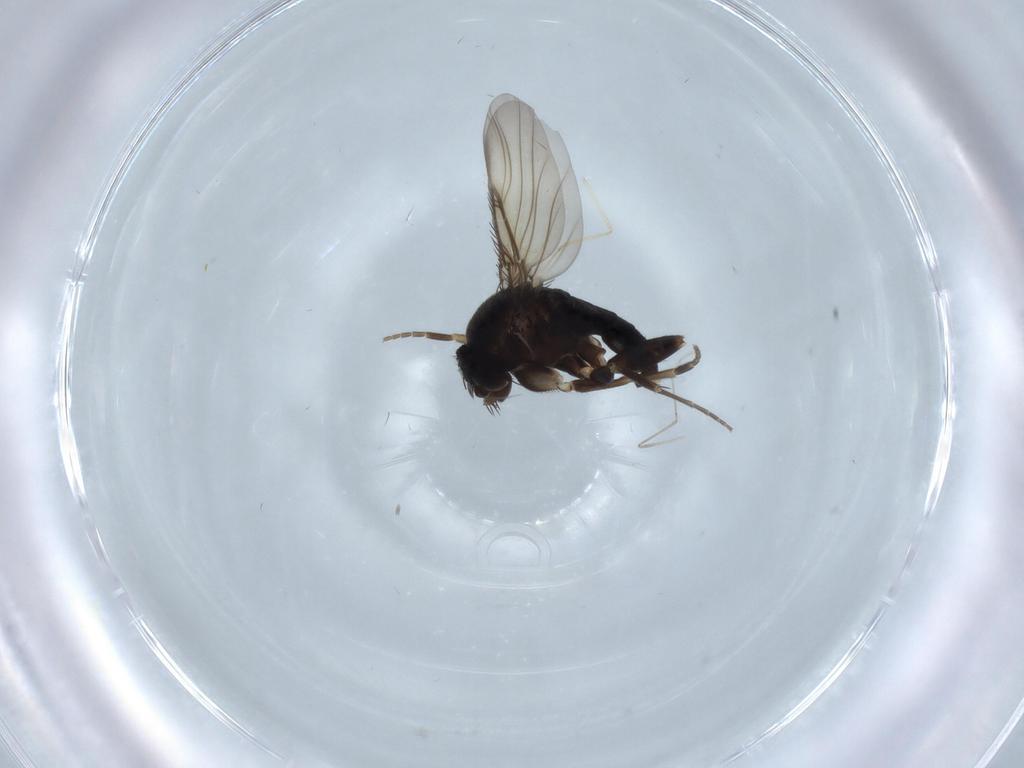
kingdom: Animalia
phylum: Arthropoda
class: Insecta
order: Diptera
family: Phoridae
